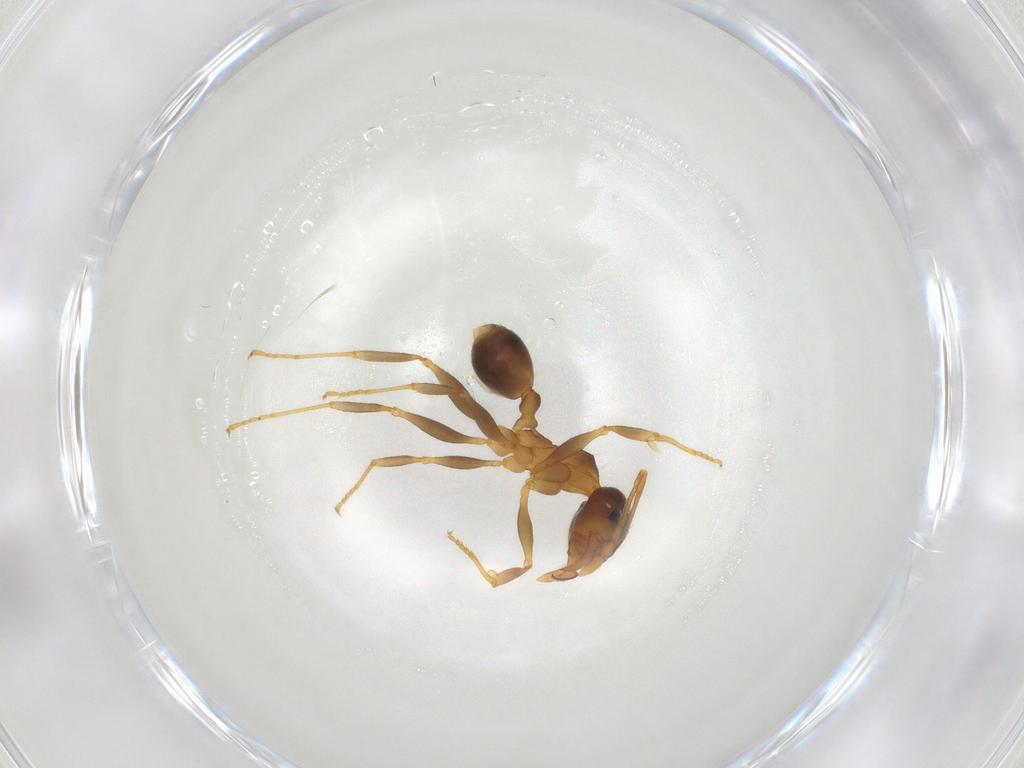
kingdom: Animalia
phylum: Arthropoda
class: Insecta
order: Hymenoptera
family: Formicidae
